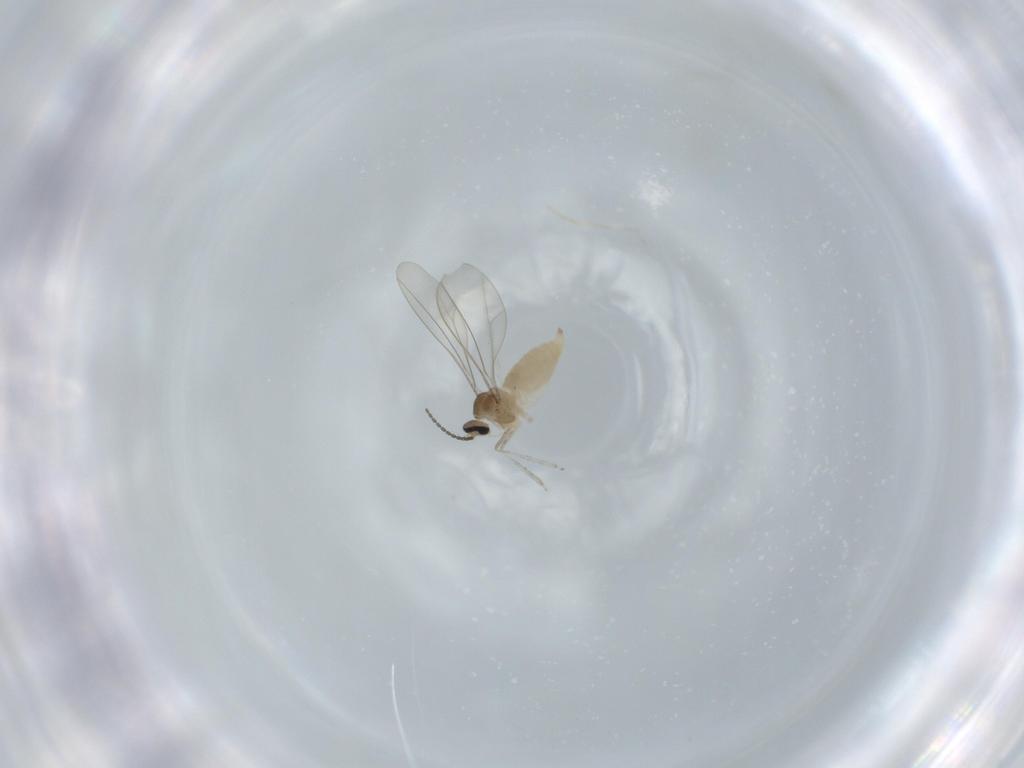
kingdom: Animalia
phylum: Arthropoda
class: Insecta
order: Diptera
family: Cecidomyiidae
